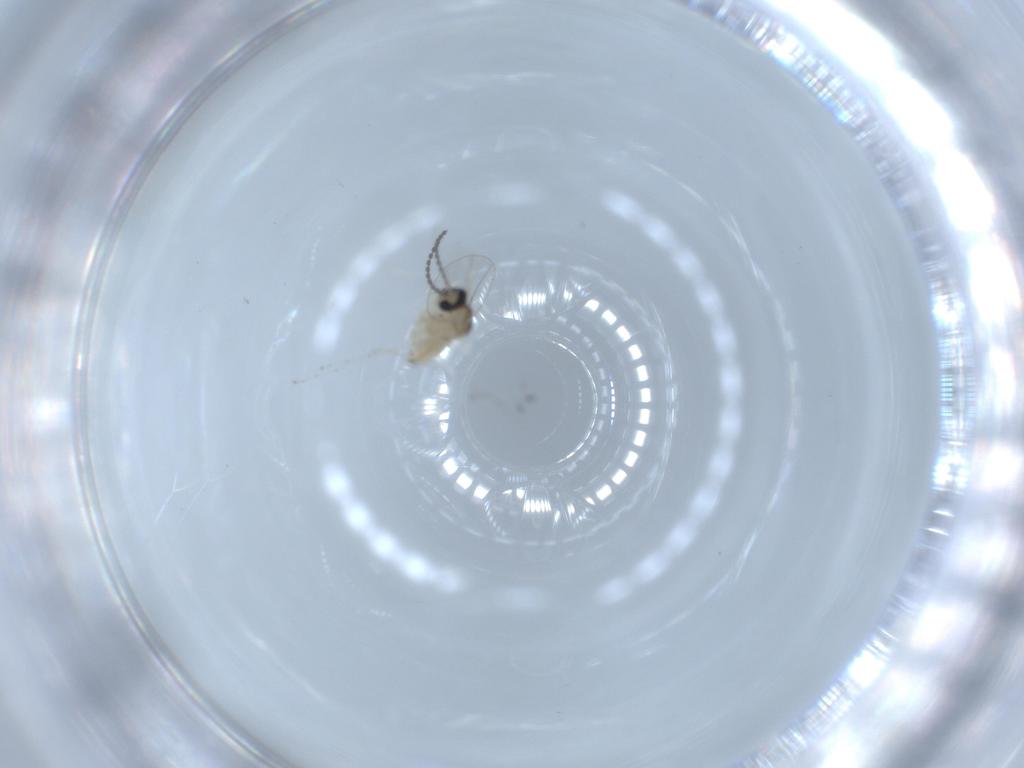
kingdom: Animalia
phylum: Arthropoda
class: Insecta
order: Diptera
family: Cecidomyiidae
